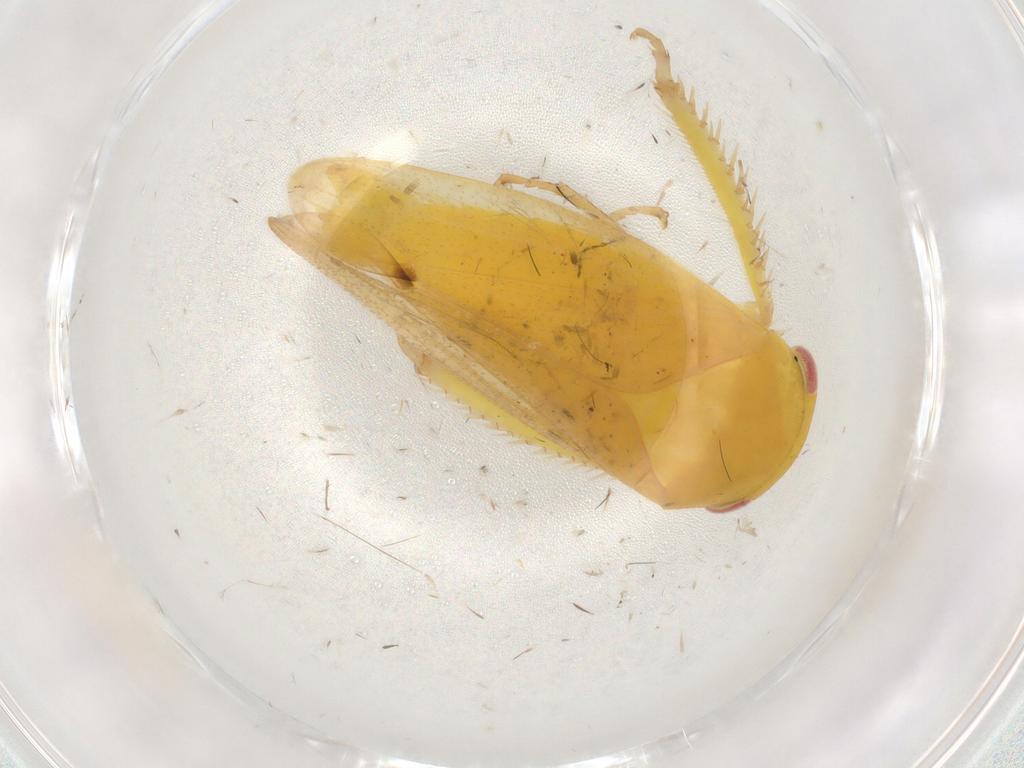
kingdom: Animalia
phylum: Arthropoda
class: Insecta
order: Hemiptera
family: Cicadellidae
